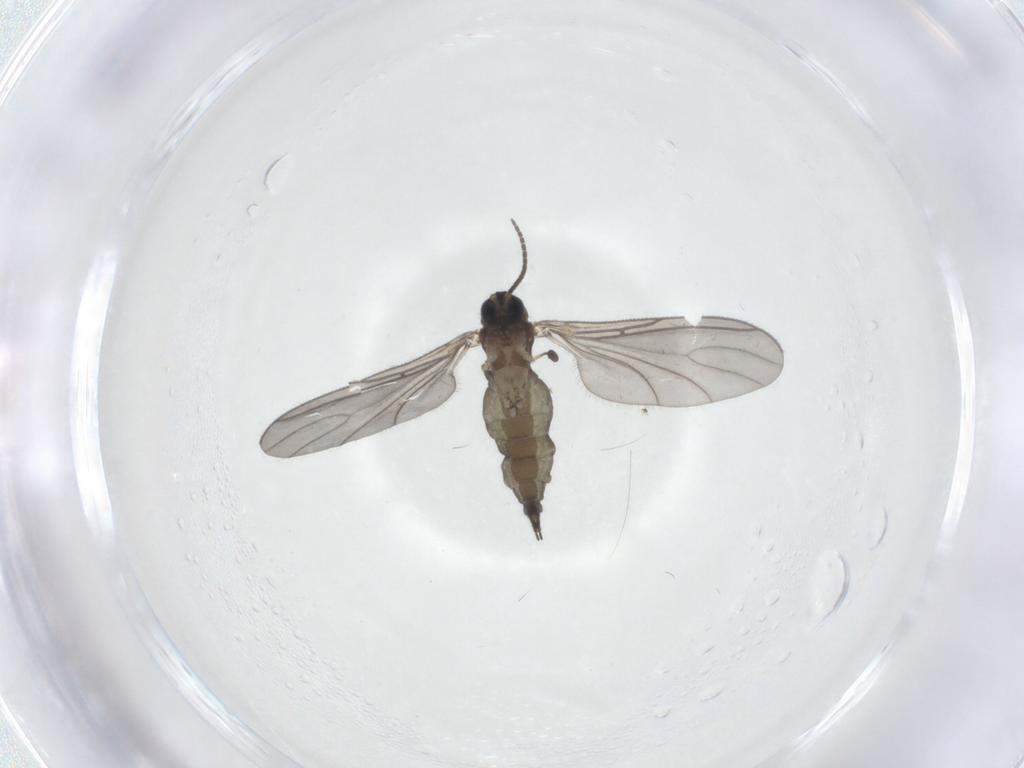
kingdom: Animalia
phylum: Arthropoda
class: Insecta
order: Diptera
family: Sciaridae
